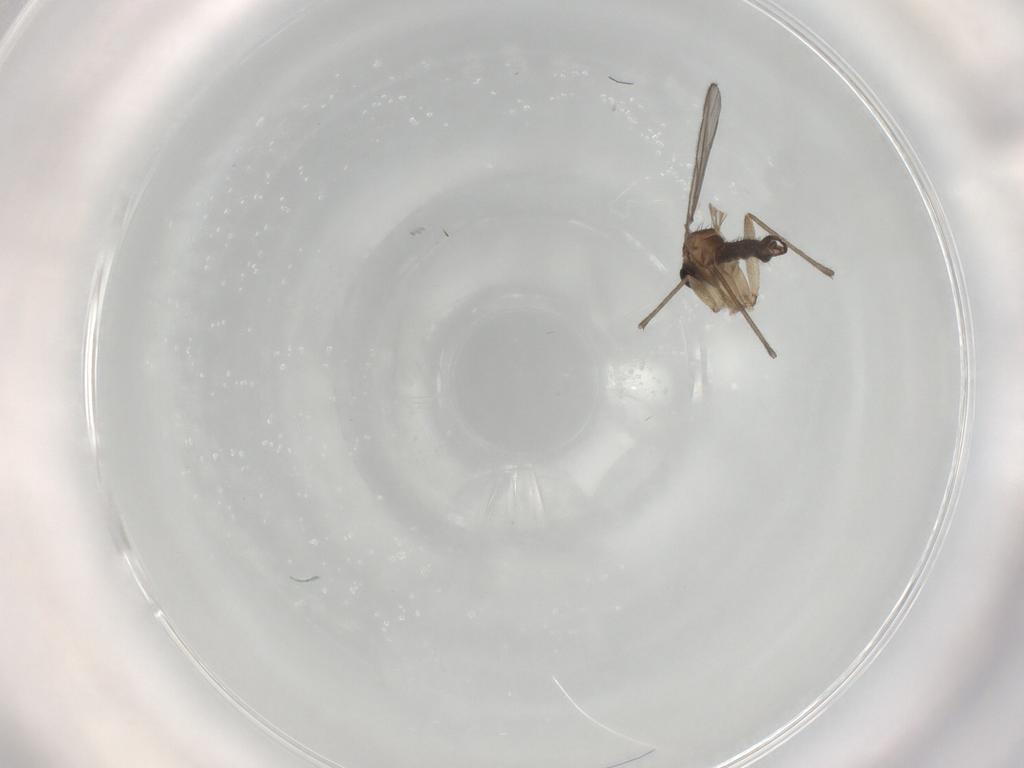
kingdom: Animalia
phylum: Arthropoda
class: Insecta
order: Diptera
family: Sciaridae
